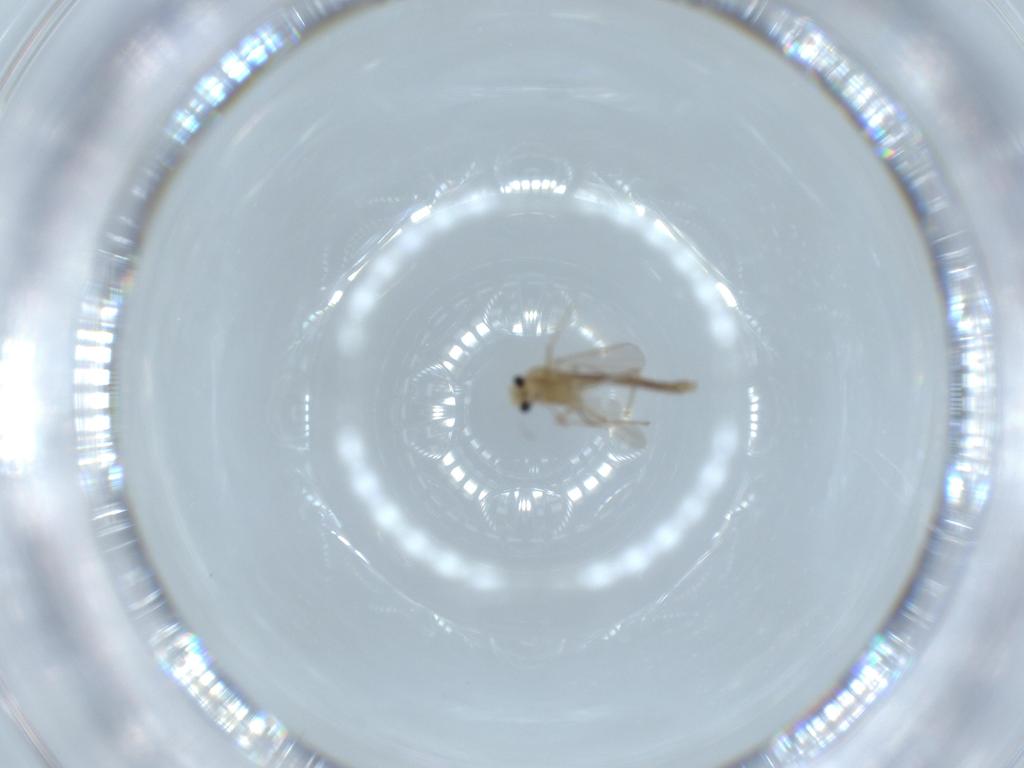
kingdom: Animalia
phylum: Arthropoda
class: Insecta
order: Diptera
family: Chironomidae
